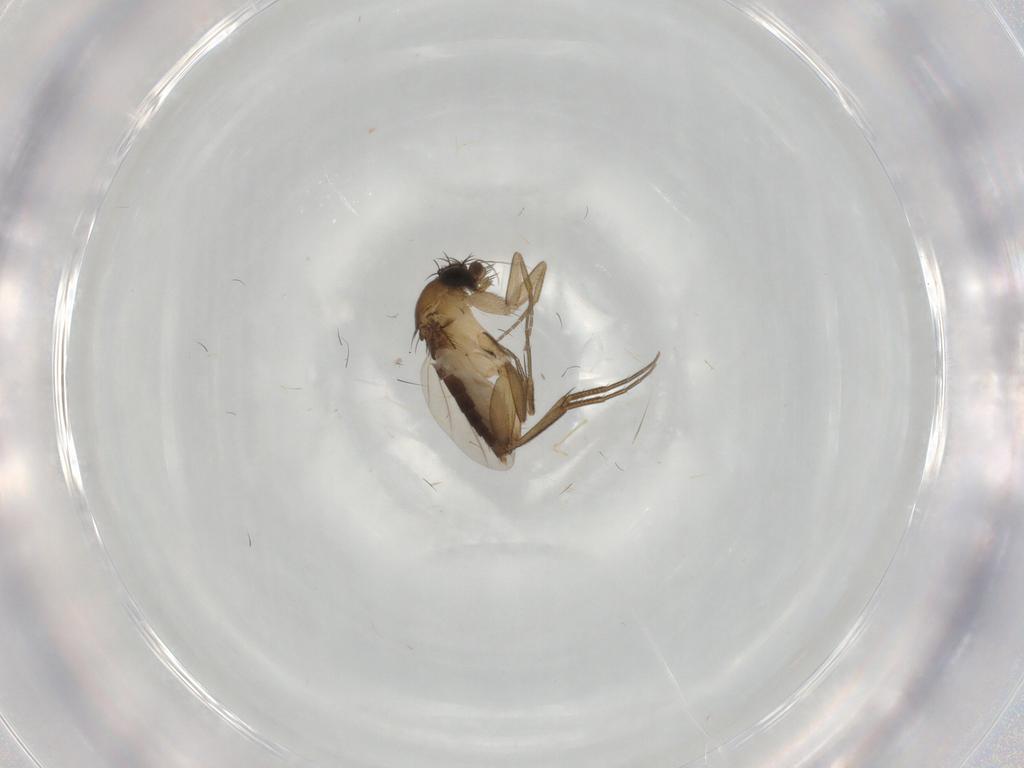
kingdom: Animalia
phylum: Arthropoda
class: Insecta
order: Diptera
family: Phoridae
